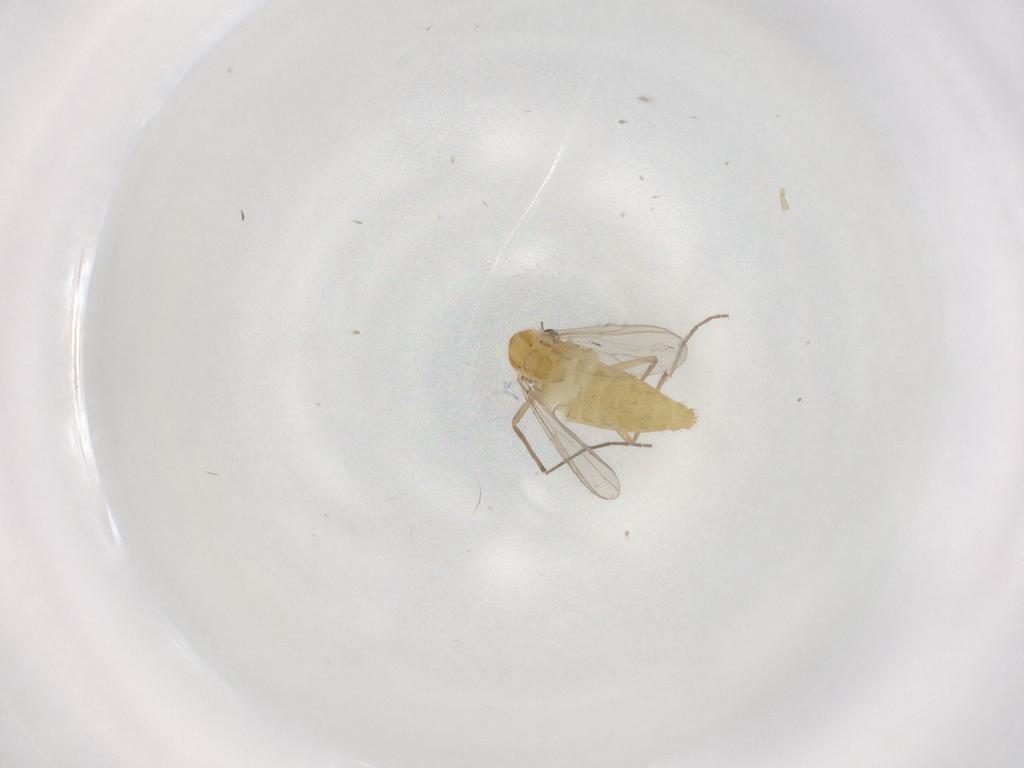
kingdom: Animalia
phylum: Arthropoda
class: Insecta
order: Diptera
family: Chironomidae
